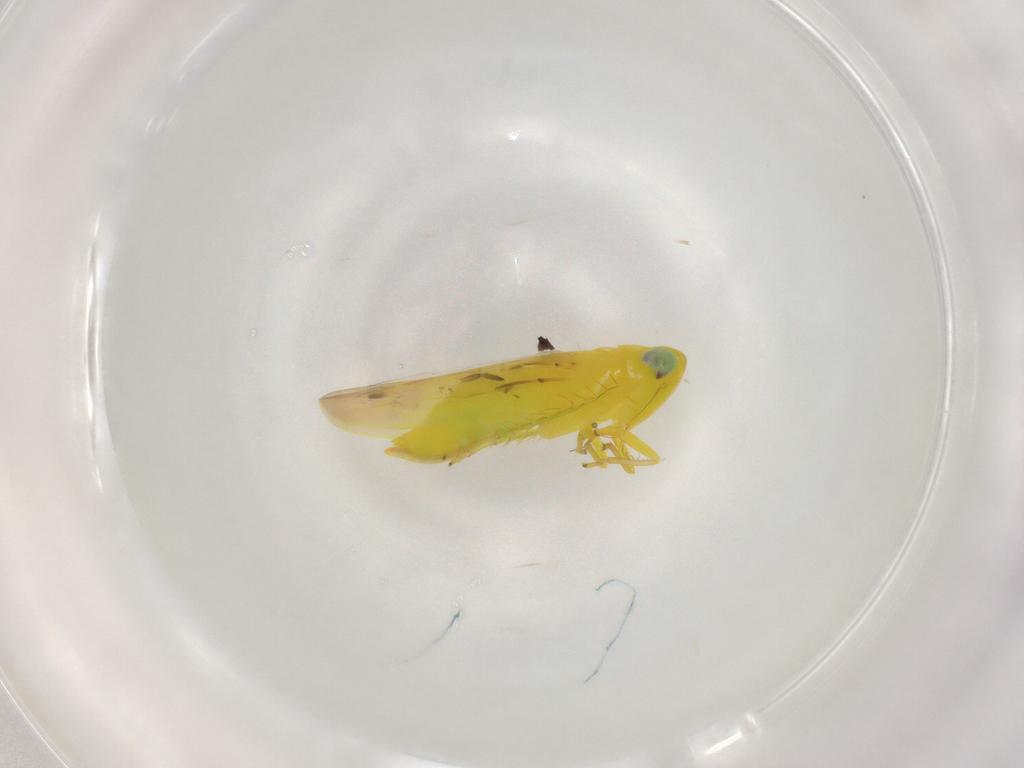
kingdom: Animalia
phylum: Arthropoda
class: Insecta
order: Hemiptera
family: Cicadellidae
